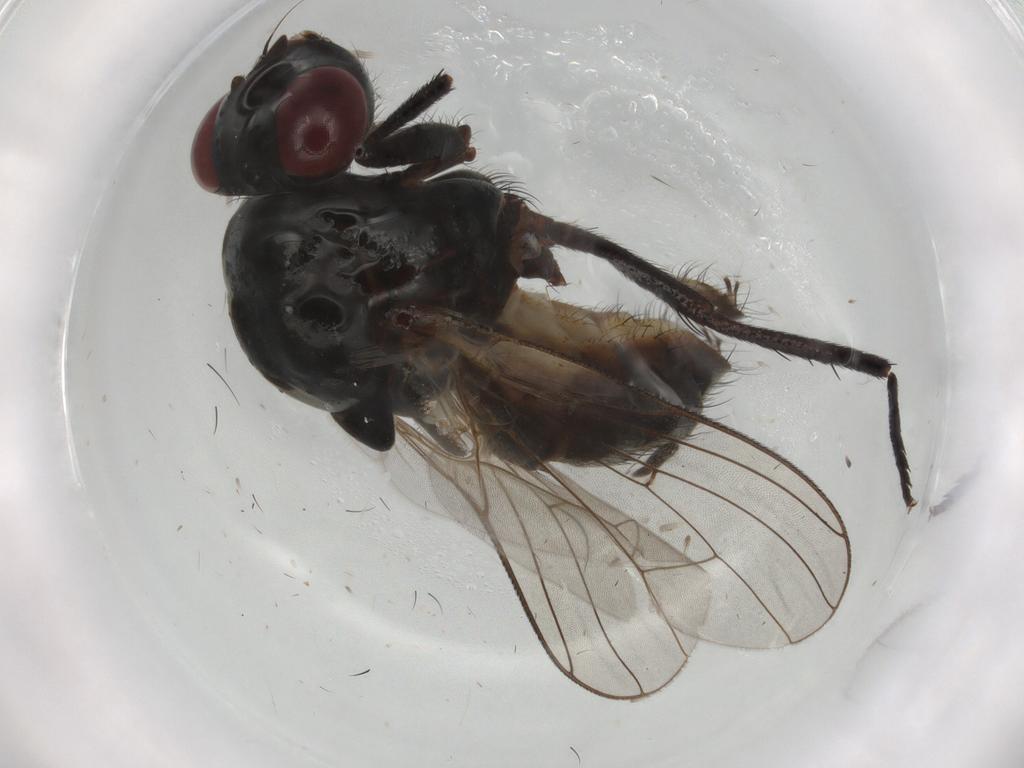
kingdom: Animalia
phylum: Arthropoda
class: Insecta
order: Diptera
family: Anthomyiidae
